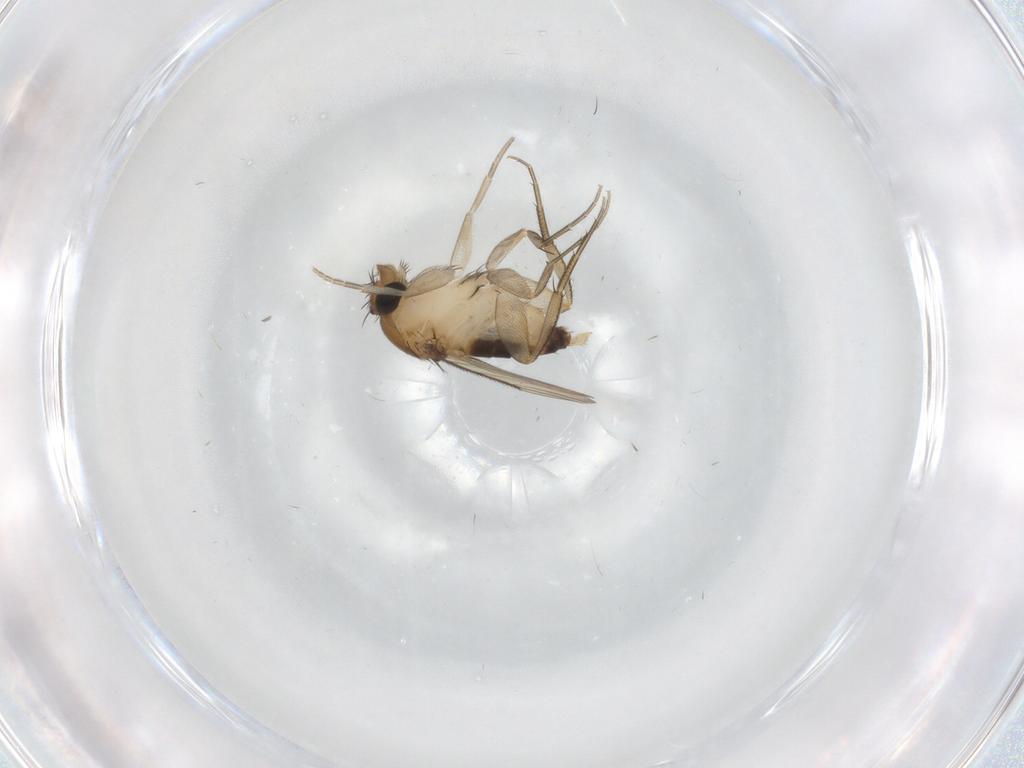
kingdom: Animalia
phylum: Arthropoda
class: Insecta
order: Diptera
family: Phoridae
